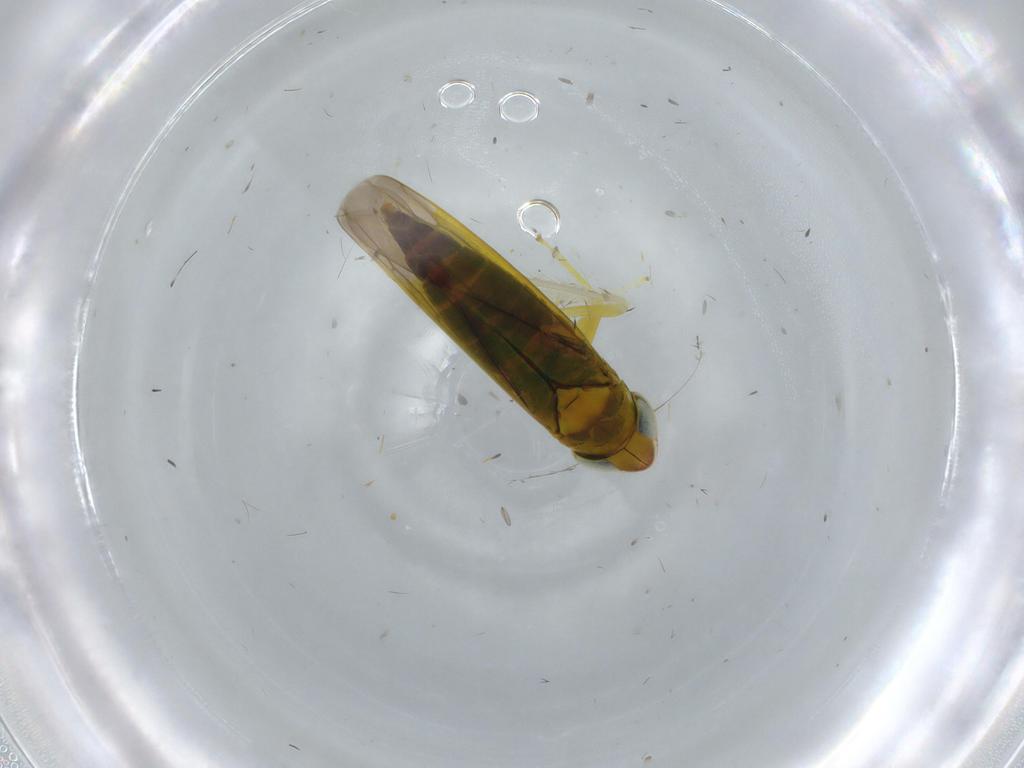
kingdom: Animalia
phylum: Arthropoda
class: Insecta
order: Hemiptera
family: Cicadellidae
